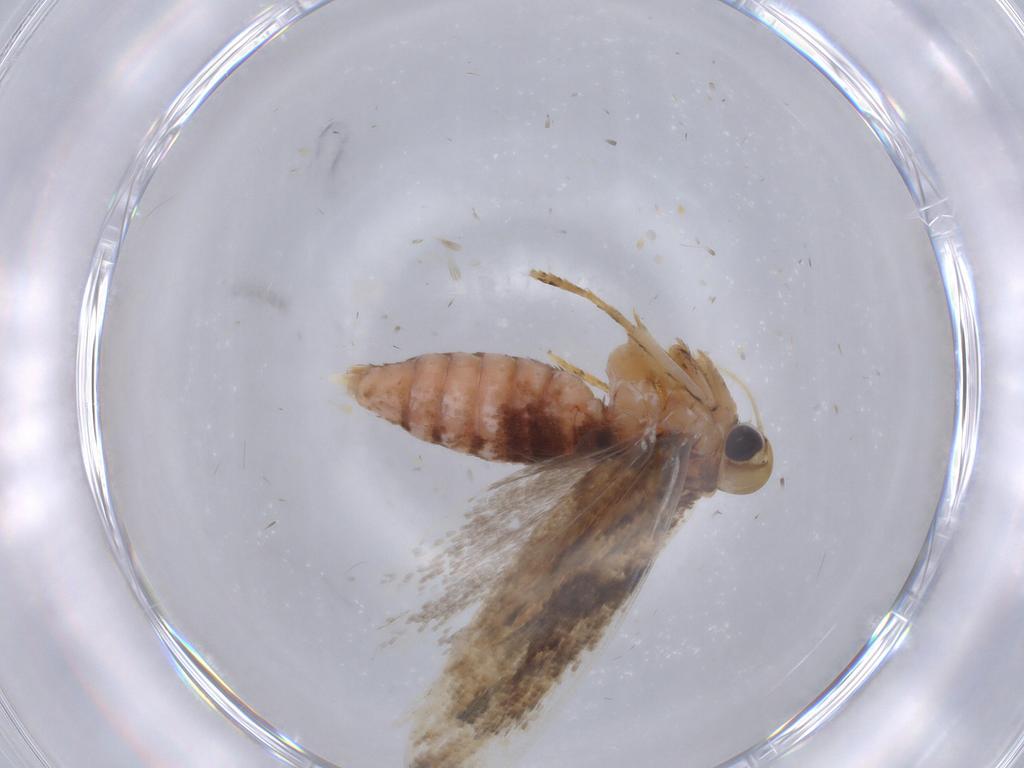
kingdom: Animalia
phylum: Arthropoda
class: Insecta
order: Lepidoptera
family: Gelechiidae
